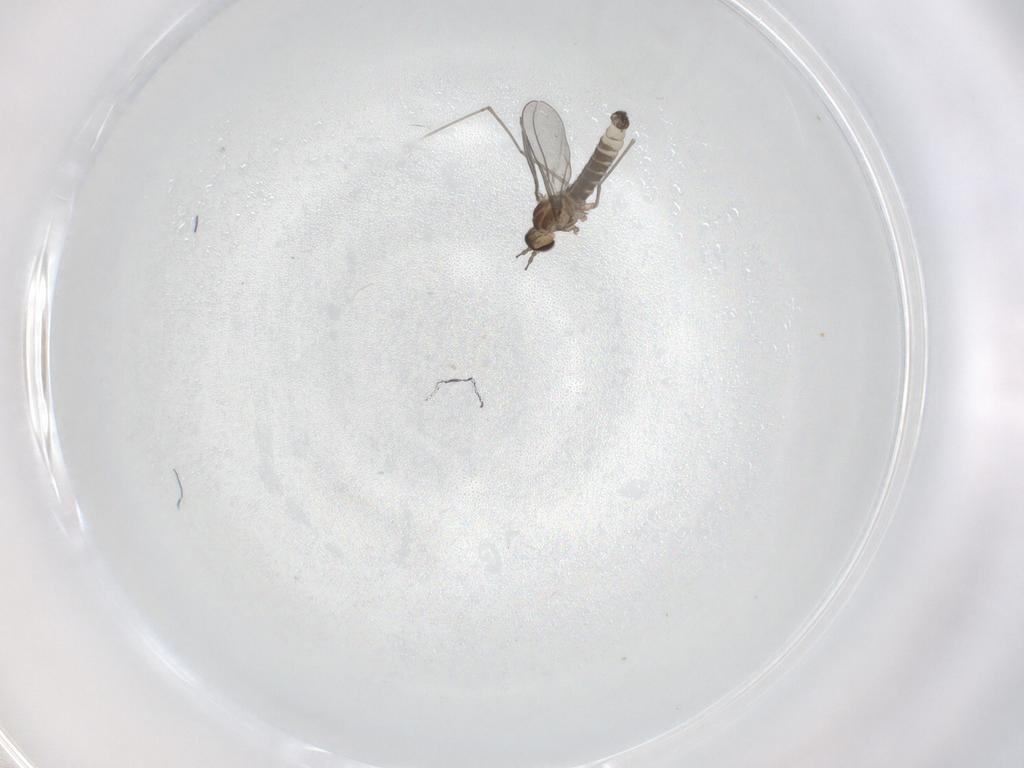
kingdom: Animalia
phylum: Arthropoda
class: Insecta
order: Diptera
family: Cecidomyiidae
